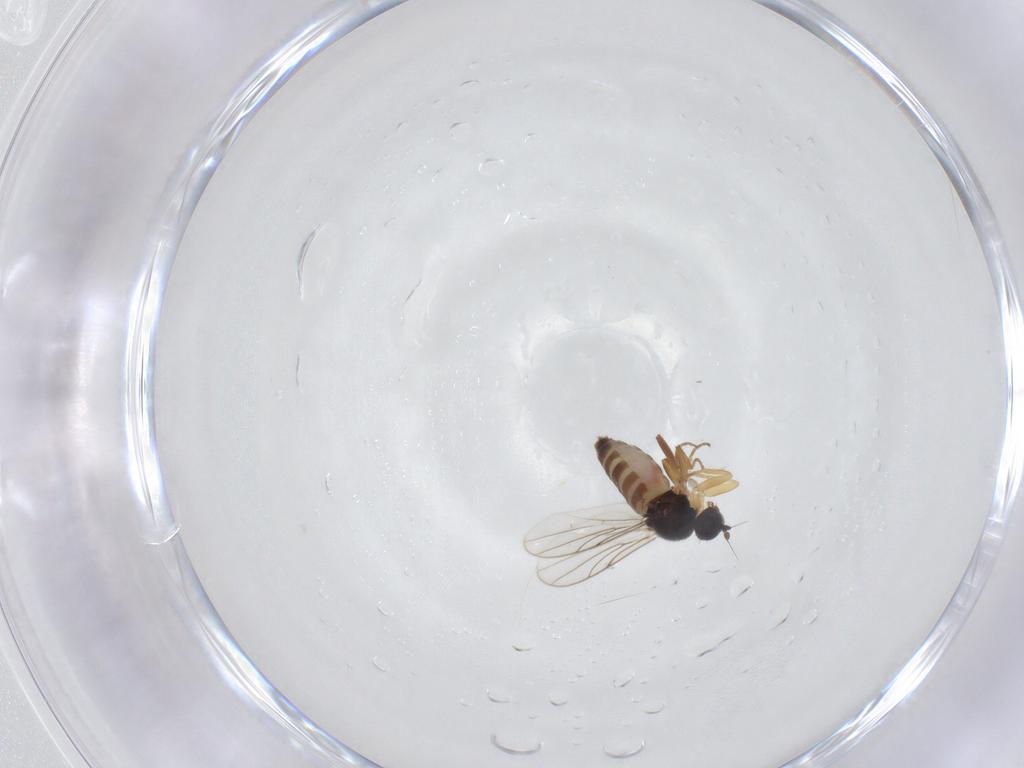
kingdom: Animalia
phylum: Arthropoda
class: Insecta
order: Diptera
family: Hybotidae
